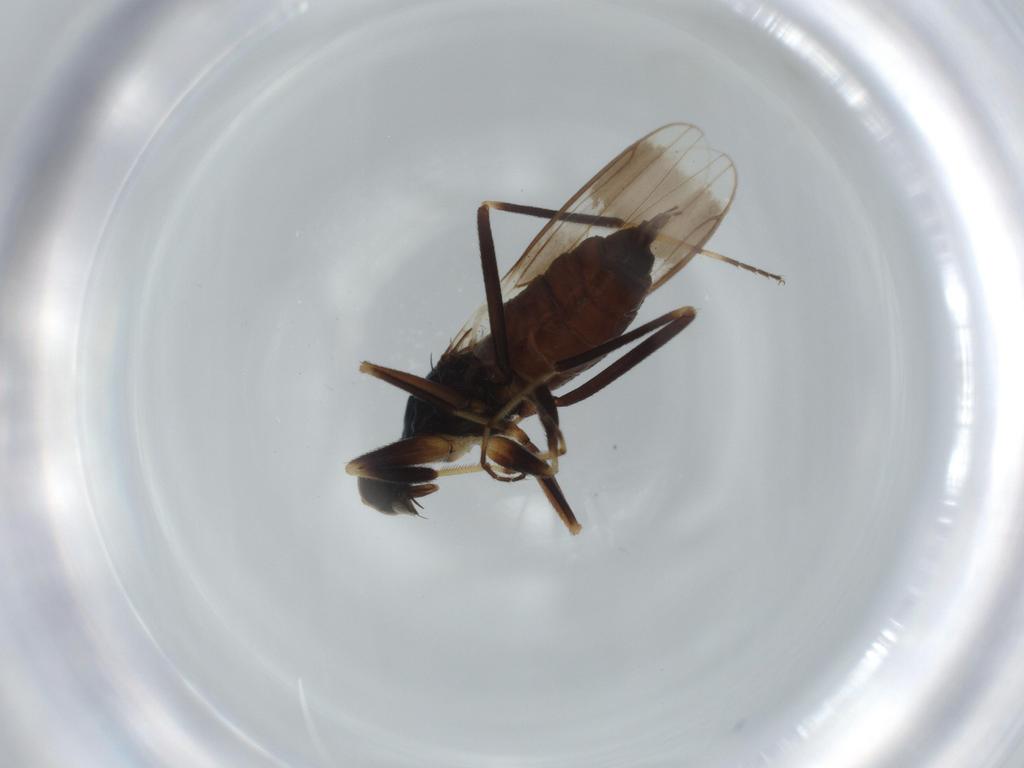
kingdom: Animalia
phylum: Arthropoda
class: Insecta
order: Diptera
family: Hybotidae
